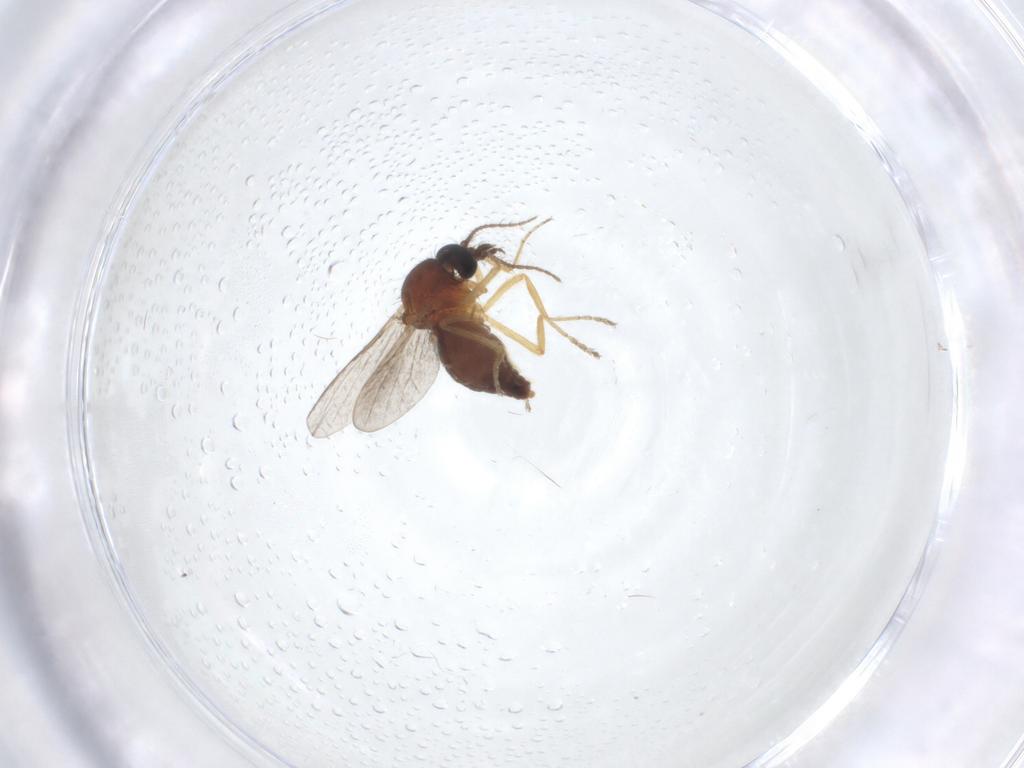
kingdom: Animalia
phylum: Arthropoda
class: Insecta
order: Diptera
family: Ceratopogonidae
